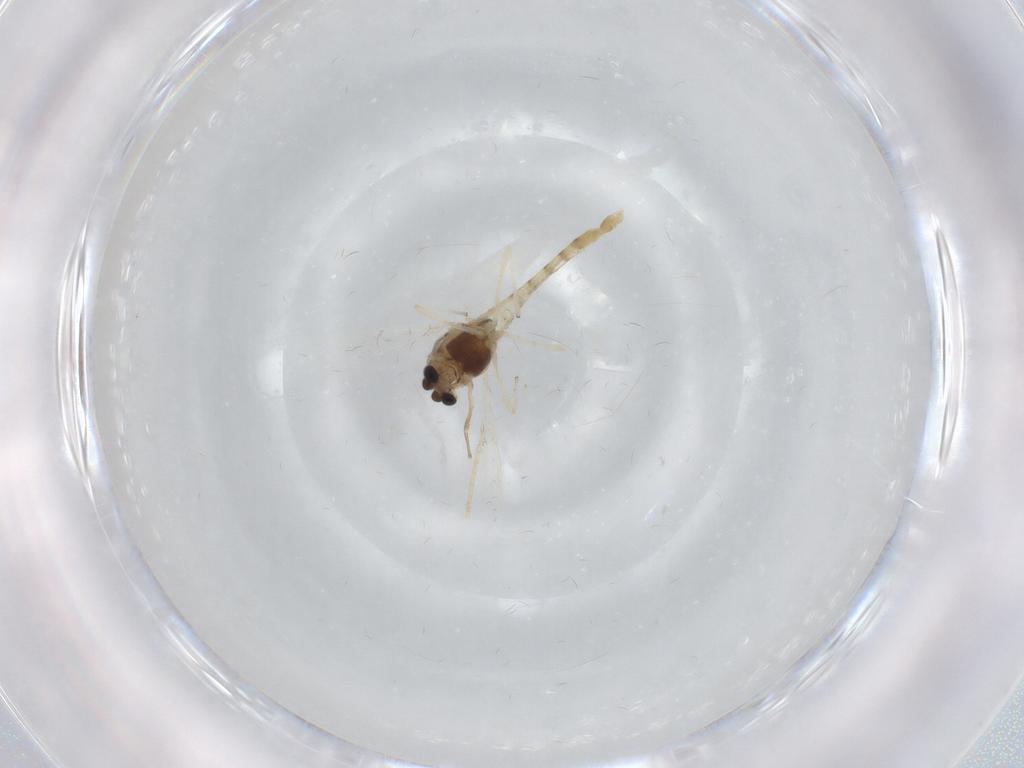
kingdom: Animalia
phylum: Arthropoda
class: Insecta
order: Diptera
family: Chironomidae
